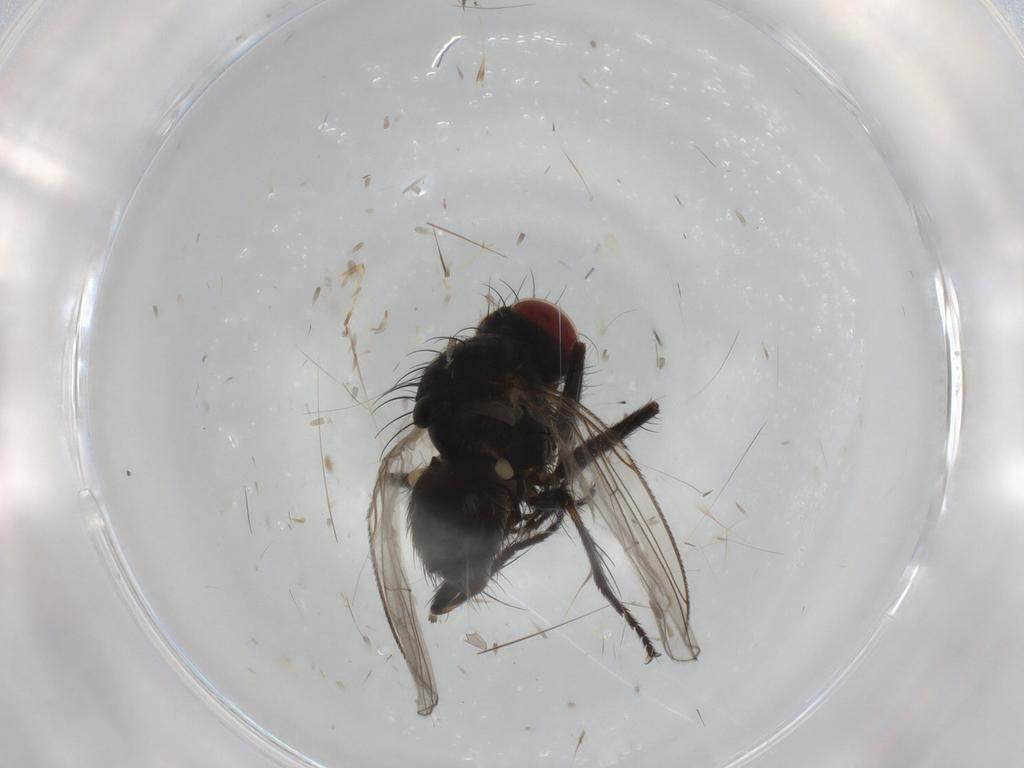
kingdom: Animalia
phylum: Arthropoda
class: Insecta
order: Diptera
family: Muscidae
